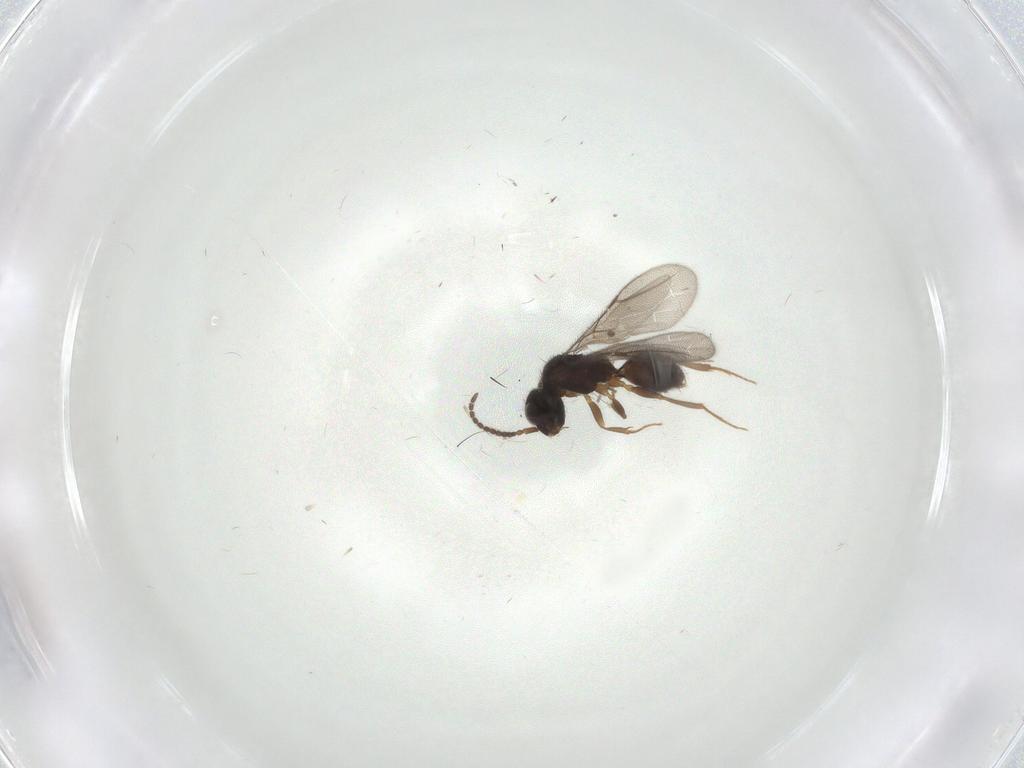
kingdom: Animalia
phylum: Arthropoda
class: Insecta
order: Hymenoptera
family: Bethylidae
